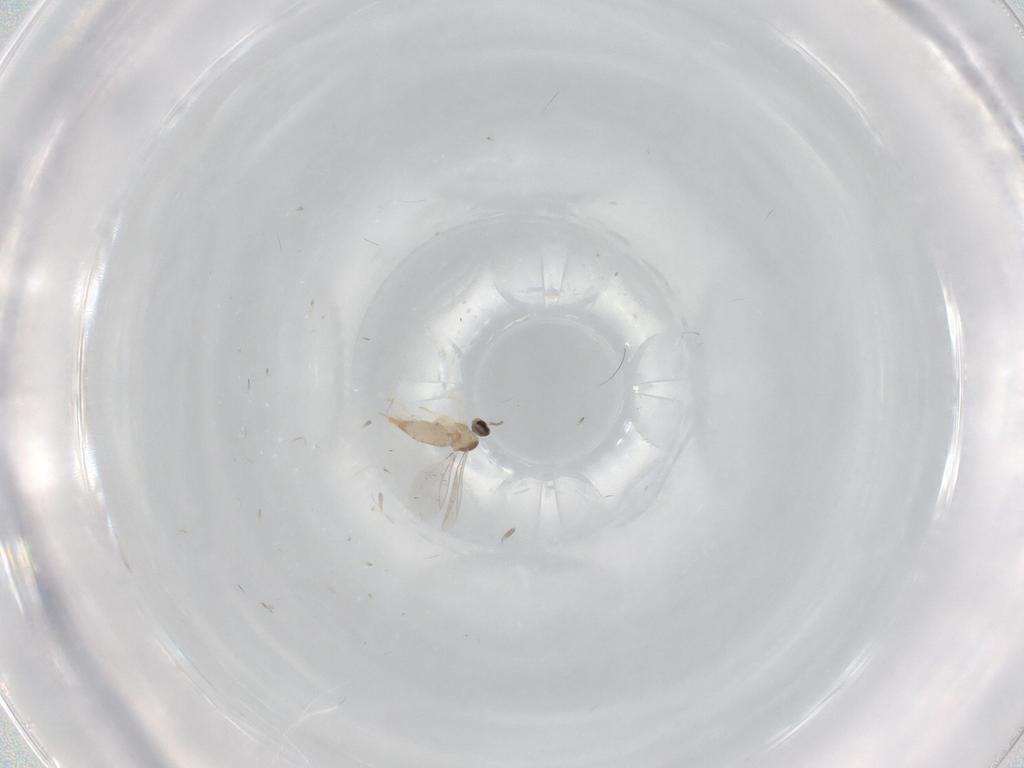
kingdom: Animalia
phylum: Arthropoda
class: Insecta
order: Diptera
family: Cecidomyiidae
